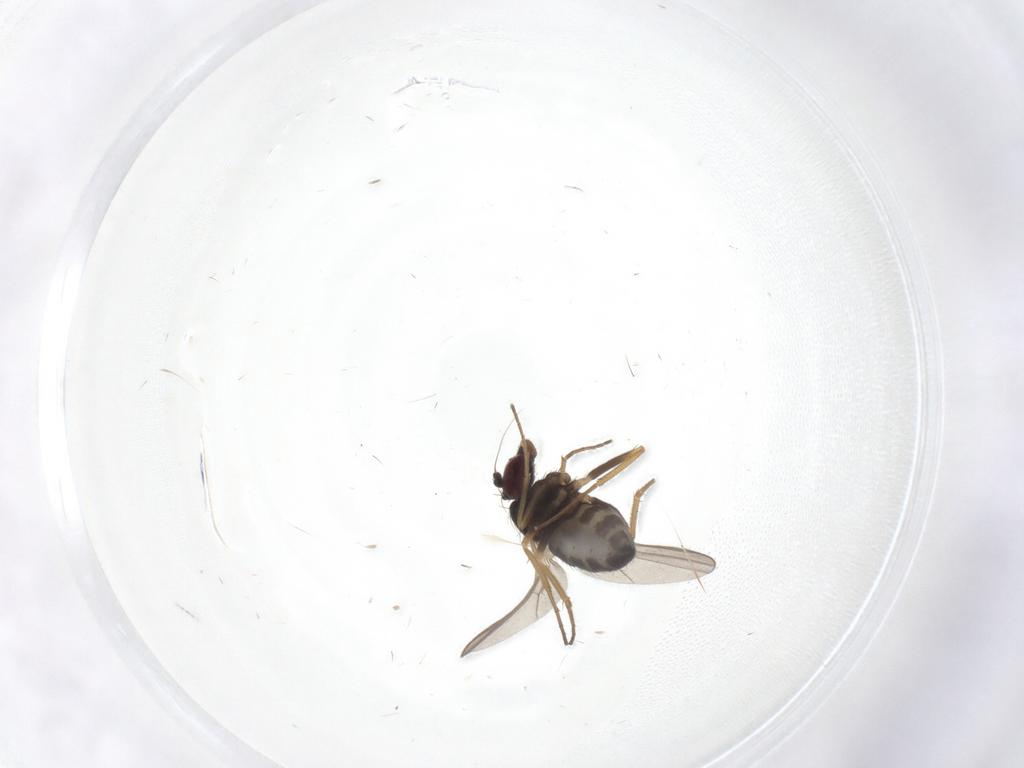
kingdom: Animalia
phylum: Arthropoda
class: Insecta
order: Diptera
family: Dolichopodidae
